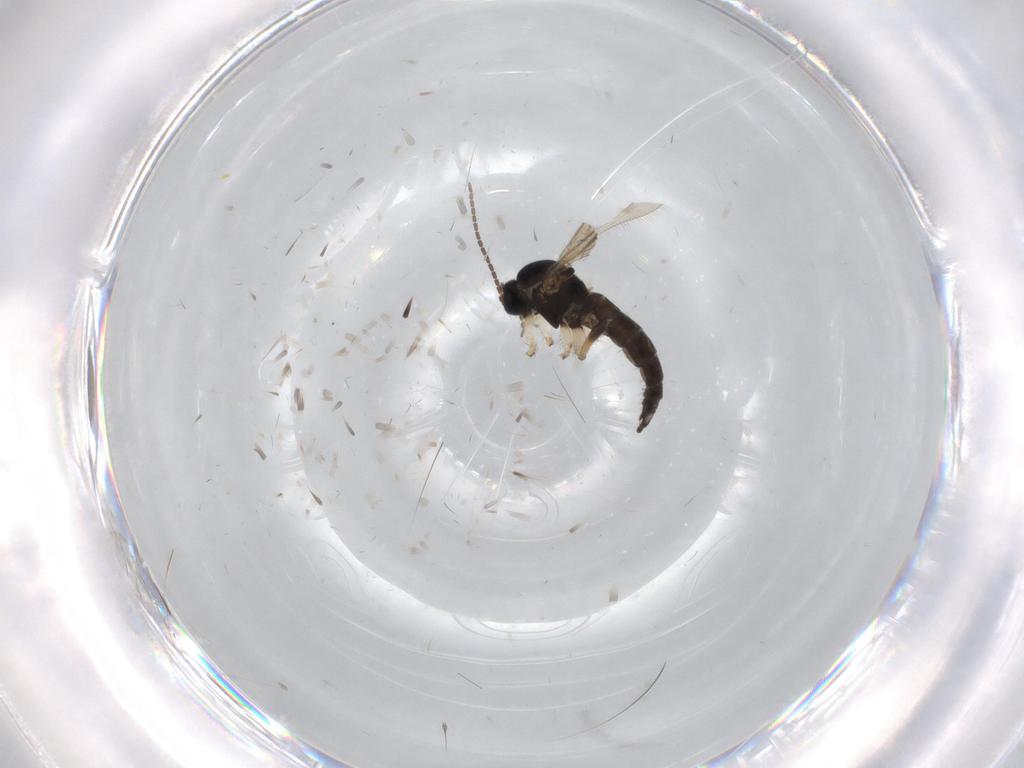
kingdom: Animalia
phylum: Arthropoda
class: Insecta
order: Diptera
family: Sciaridae
